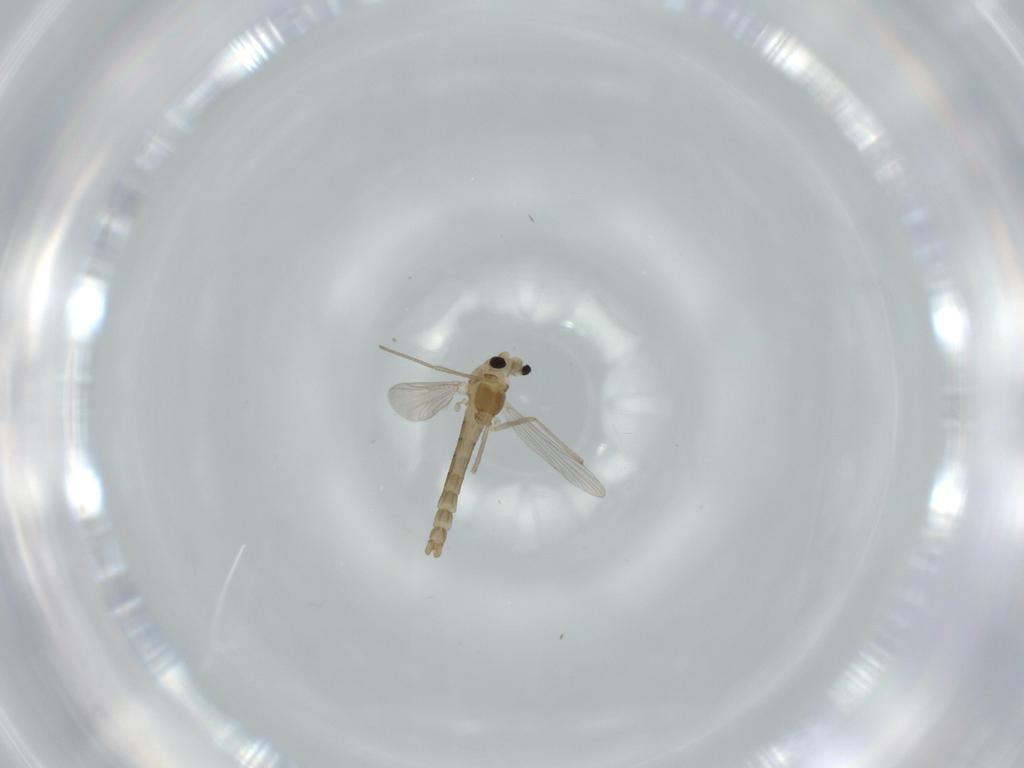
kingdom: Animalia
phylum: Arthropoda
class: Insecta
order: Diptera
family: Chironomidae
